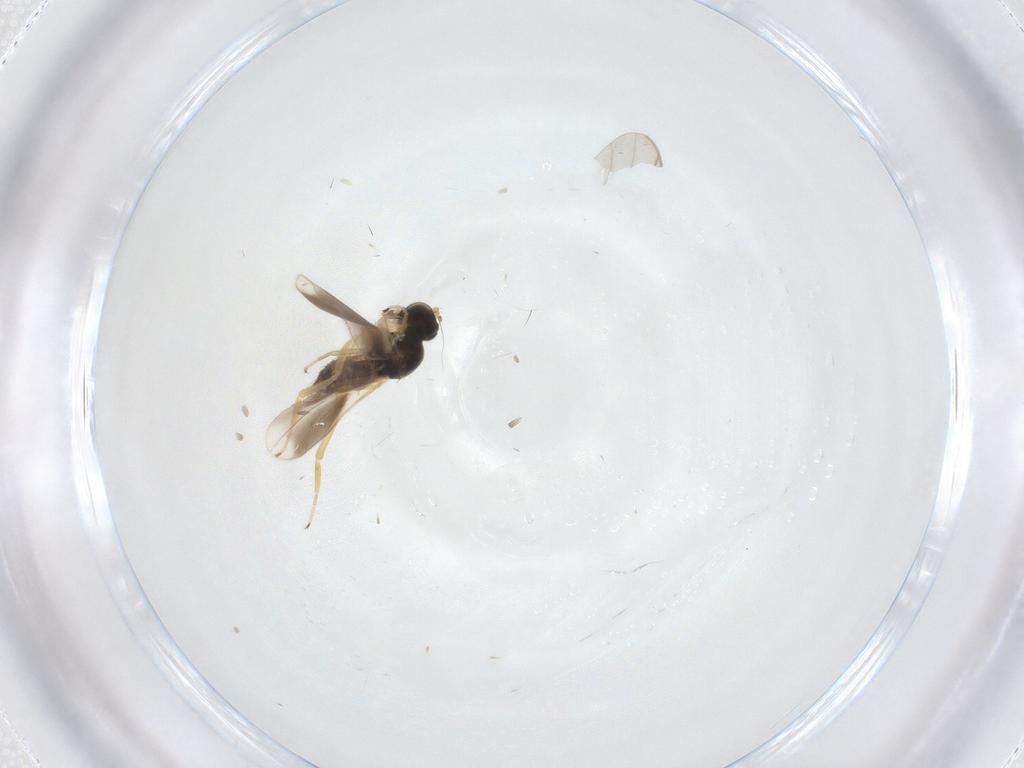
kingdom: Animalia
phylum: Arthropoda
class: Insecta
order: Diptera
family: Hybotidae
